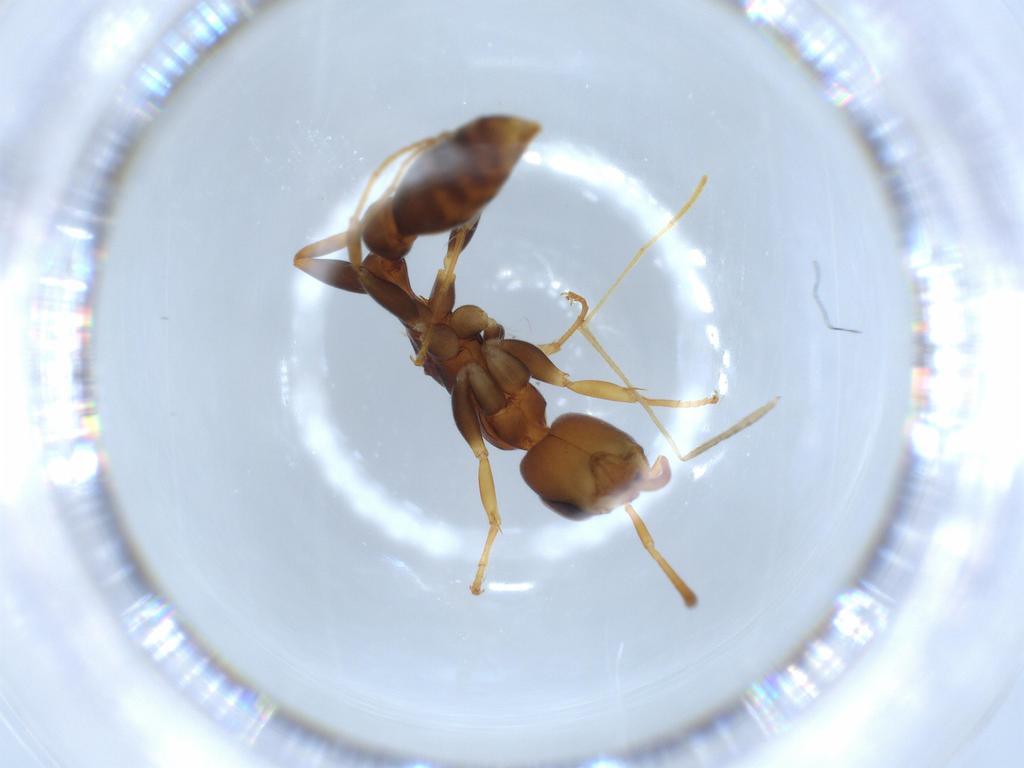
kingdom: Animalia
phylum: Arthropoda
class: Insecta
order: Hymenoptera
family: Formicidae
